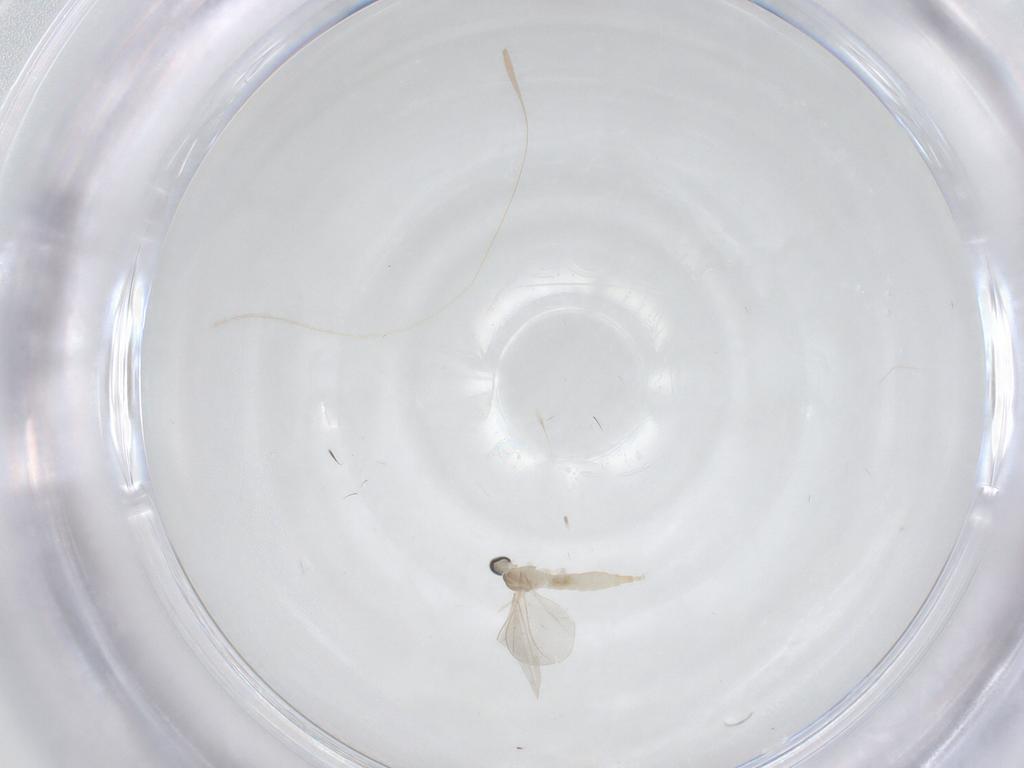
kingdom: Animalia
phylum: Arthropoda
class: Insecta
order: Diptera
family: Cecidomyiidae
